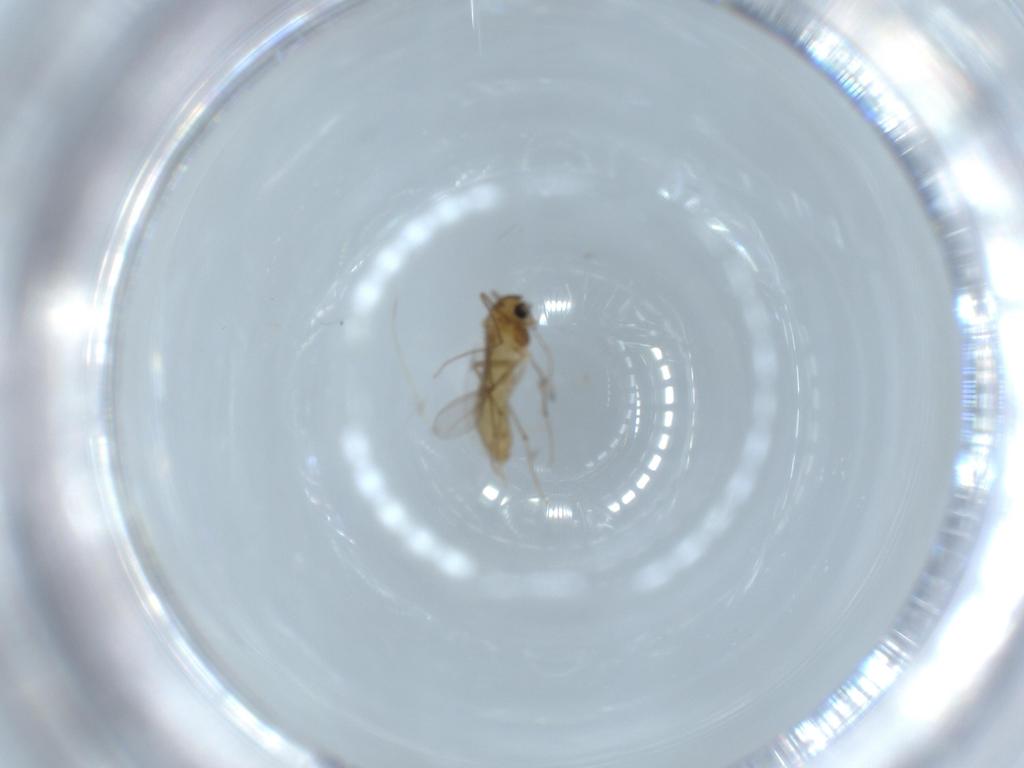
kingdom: Animalia
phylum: Arthropoda
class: Insecta
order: Diptera
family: Chironomidae
